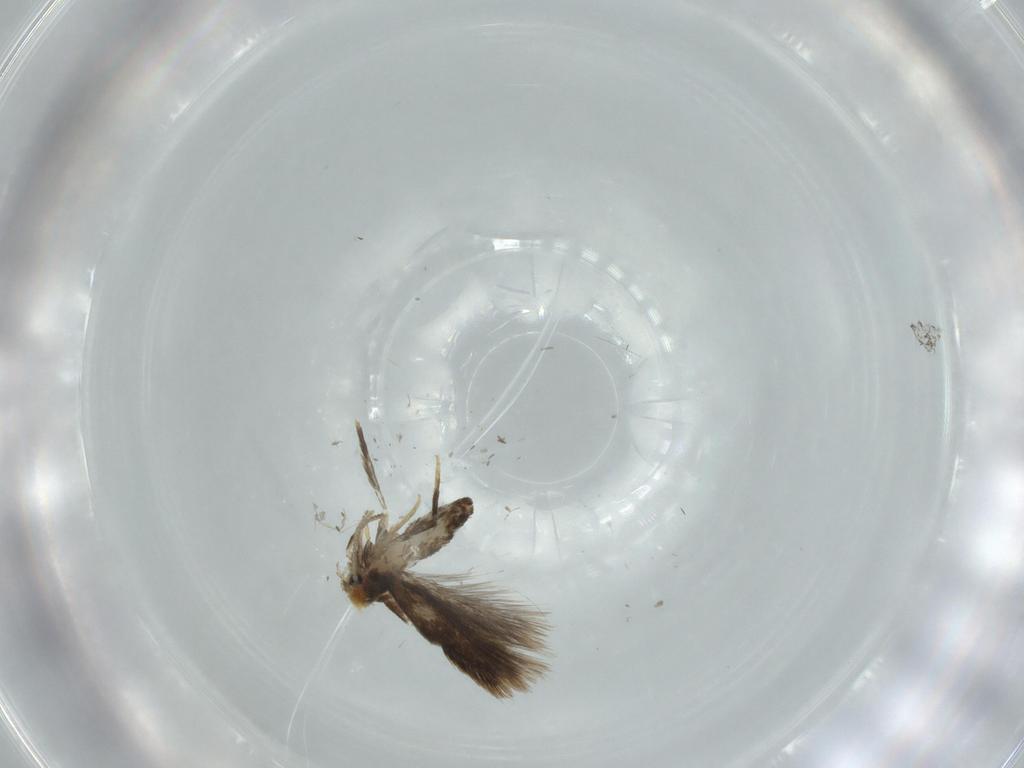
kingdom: Animalia
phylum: Arthropoda
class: Insecta
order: Lepidoptera
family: Nepticulidae
